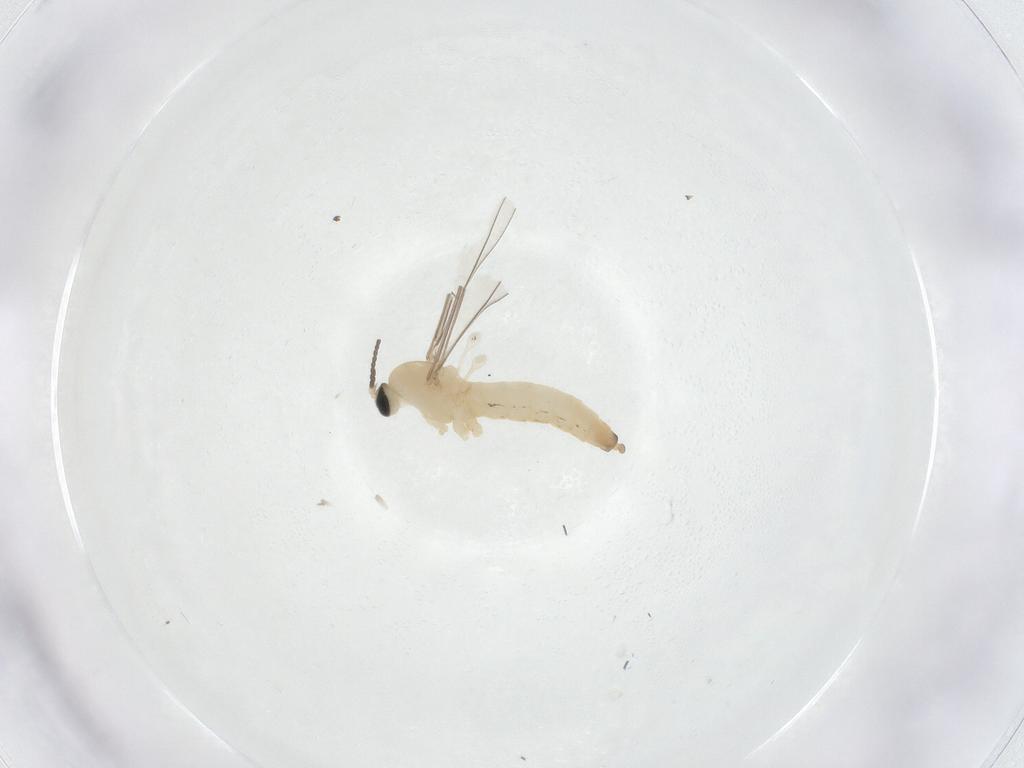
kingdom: Animalia
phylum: Arthropoda
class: Insecta
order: Diptera
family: Cecidomyiidae
